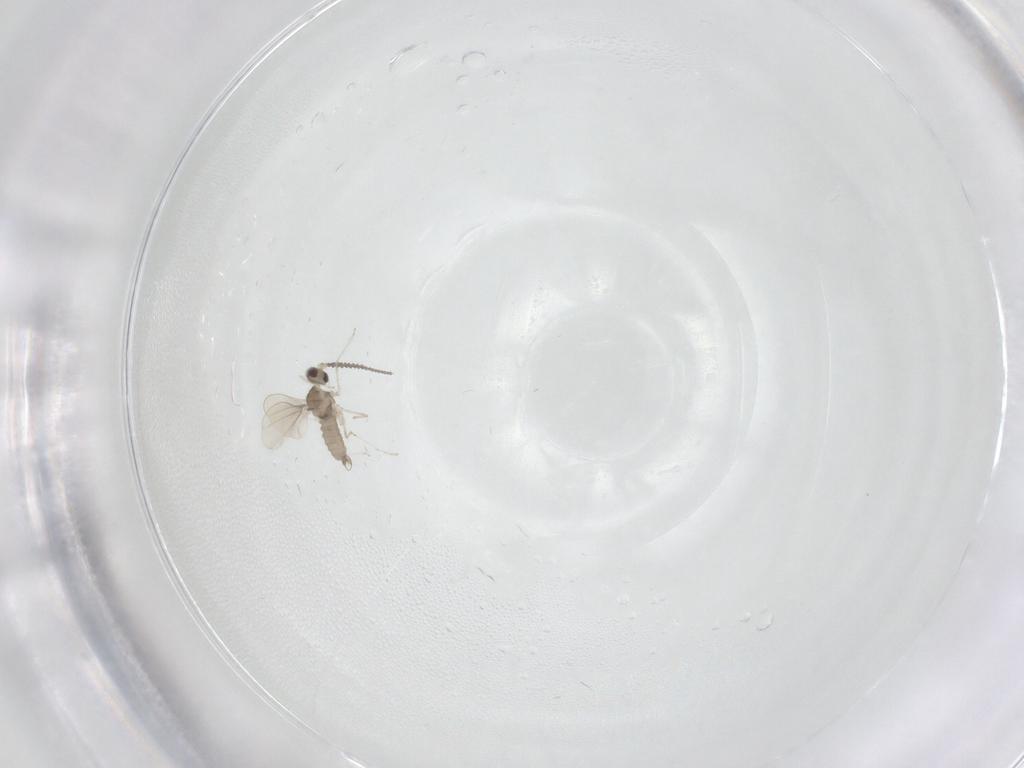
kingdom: Animalia
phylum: Arthropoda
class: Insecta
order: Diptera
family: Cecidomyiidae
